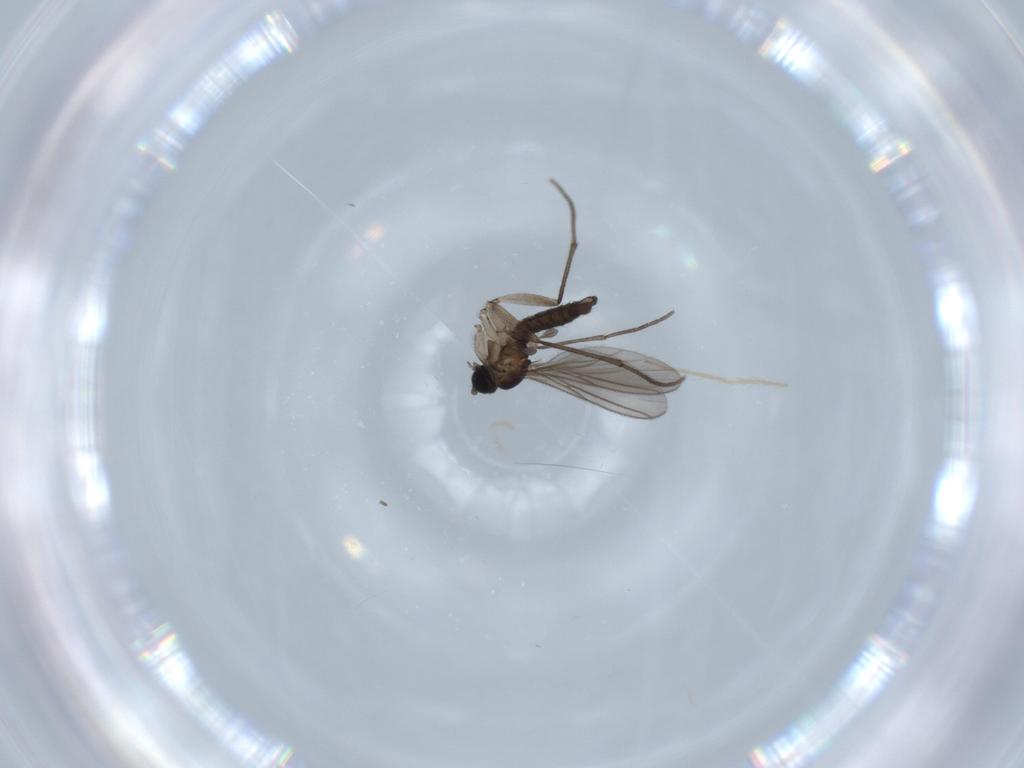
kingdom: Animalia
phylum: Arthropoda
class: Insecta
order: Diptera
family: Sciaridae
